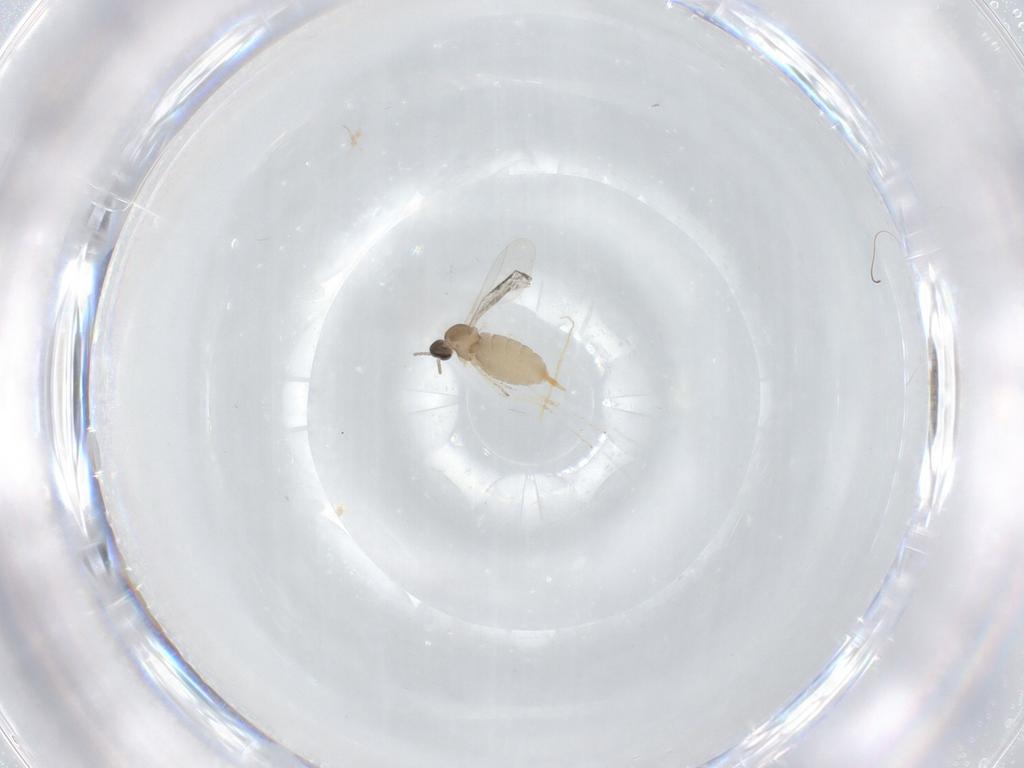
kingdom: Animalia
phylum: Arthropoda
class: Insecta
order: Diptera
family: Cecidomyiidae
